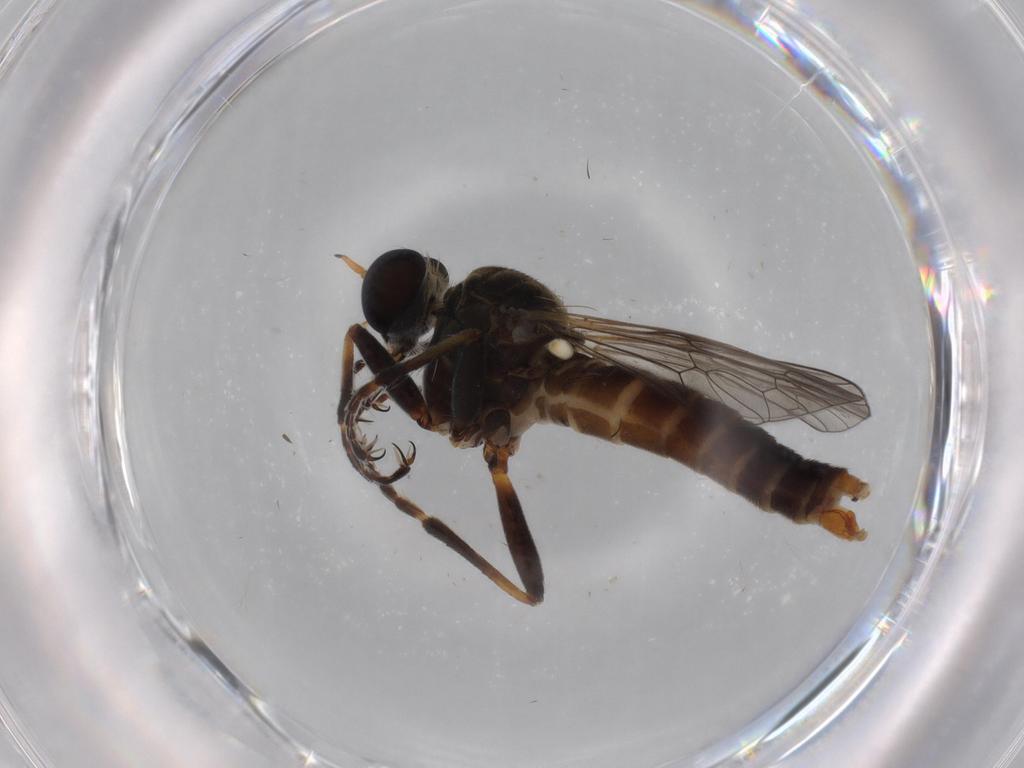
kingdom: Animalia
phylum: Arthropoda
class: Insecta
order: Diptera
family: Asilidae
